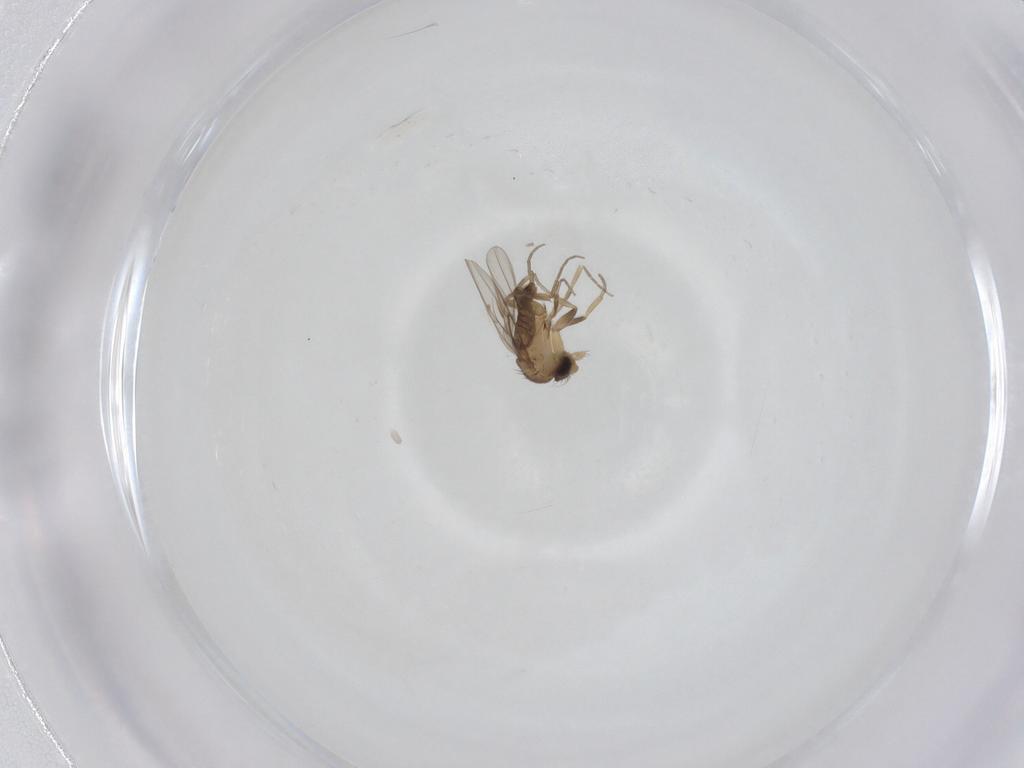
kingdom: Animalia
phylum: Arthropoda
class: Insecta
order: Diptera
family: Phoridae
